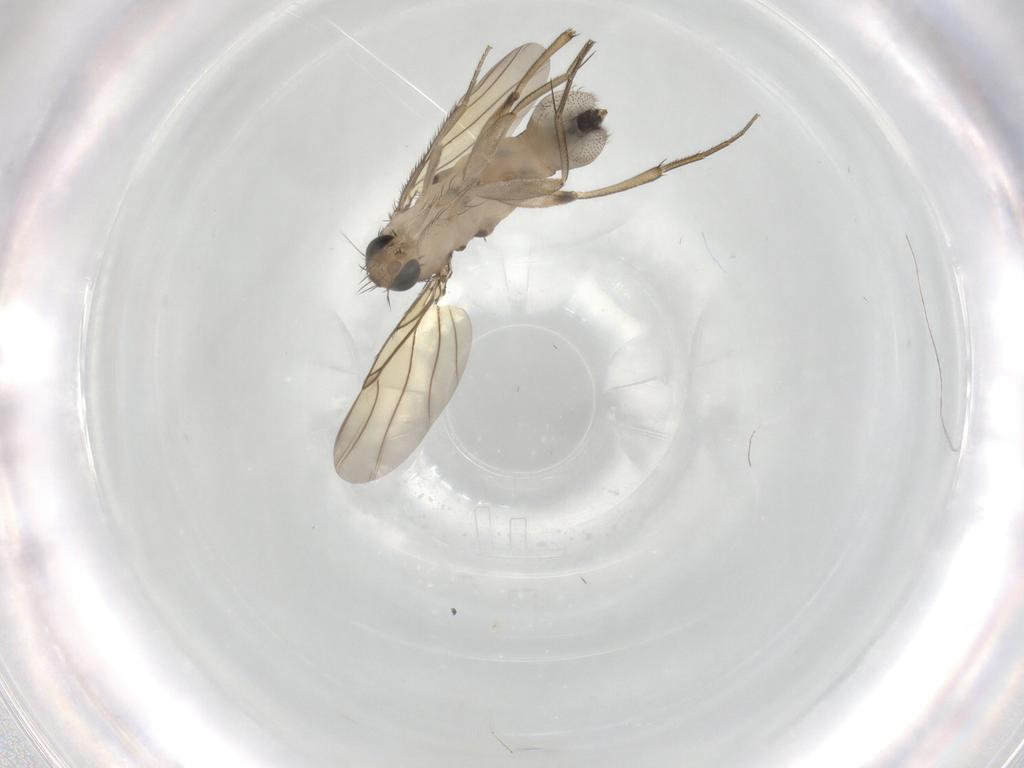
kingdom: Animalia
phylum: Arthropoda
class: Insecta
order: Diptera
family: Phoridae
